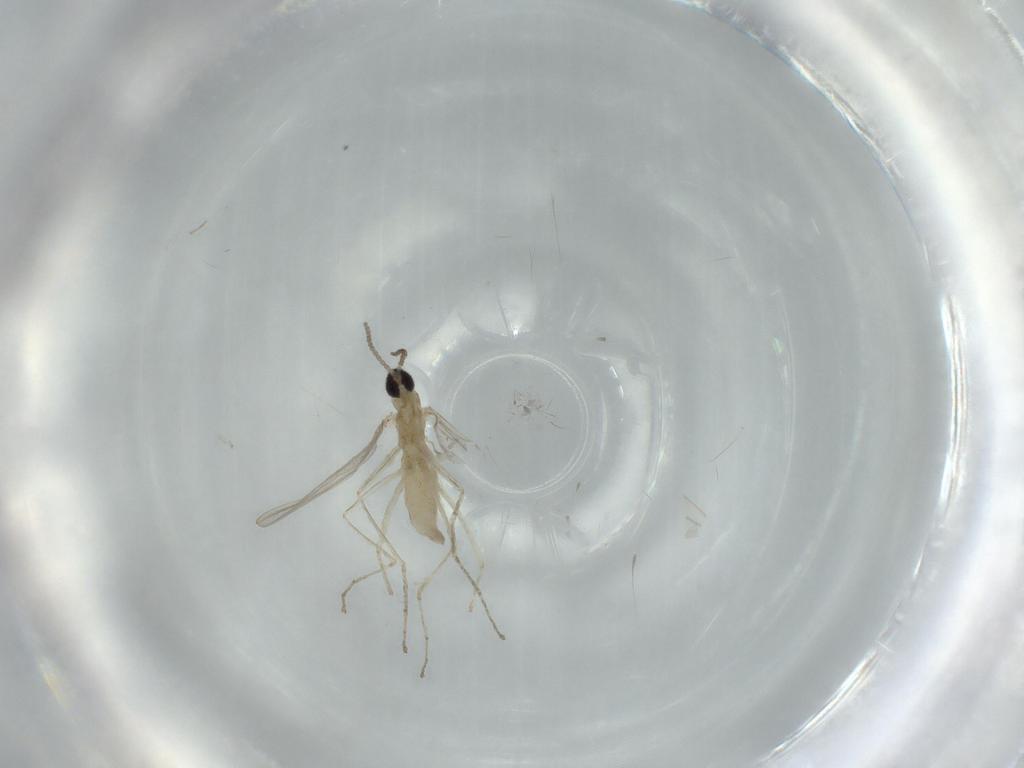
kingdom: Animalia
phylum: Arthropoda
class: Insecta
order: Diptera
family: Cecidomyiidae
